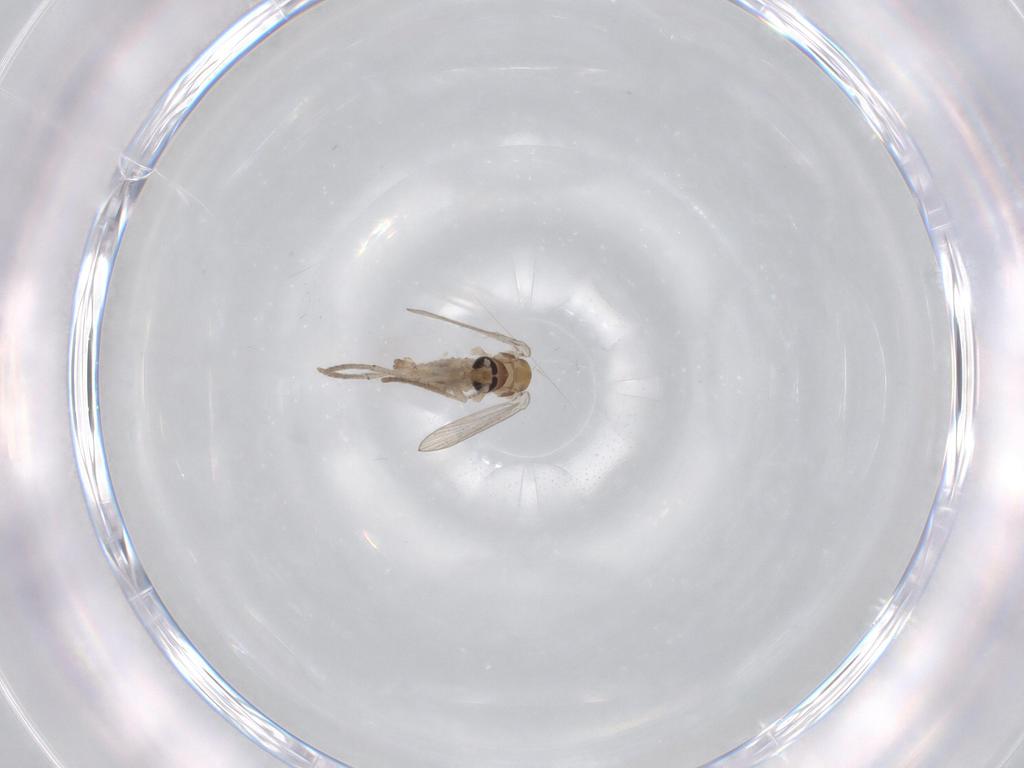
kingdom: Animalia
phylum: Arthropoda
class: Insecta
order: Diptera
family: Psychodidae
